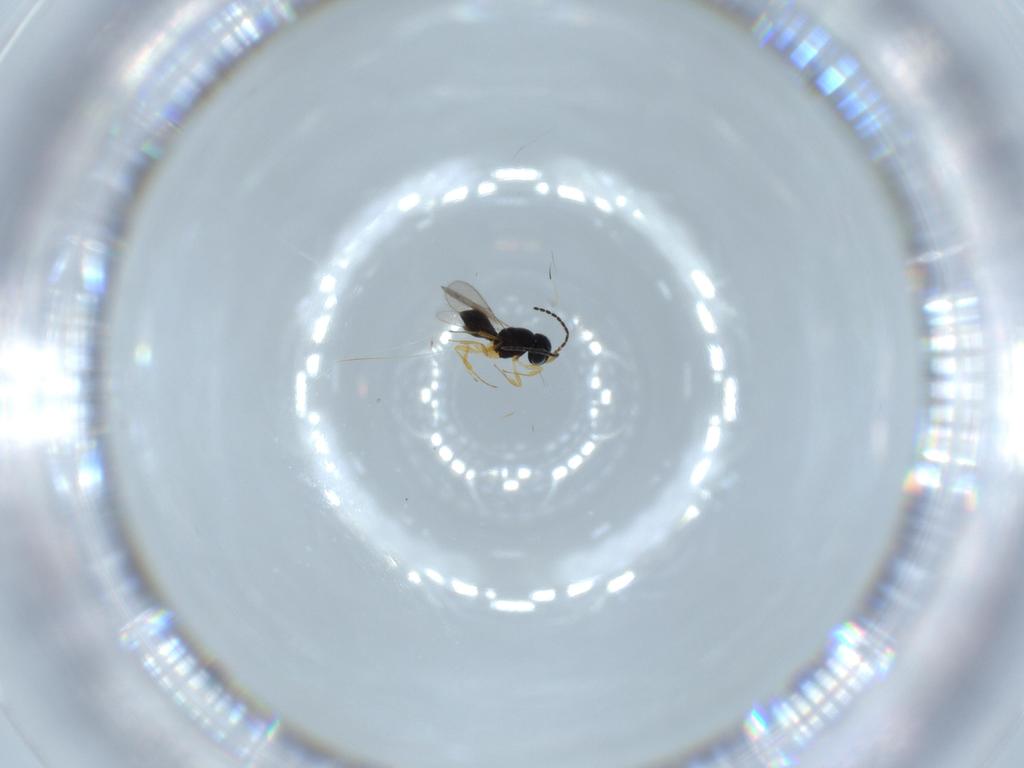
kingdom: Animalia
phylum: Arthropoda
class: Insecta
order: Hymenoptera
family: Scelionidae
